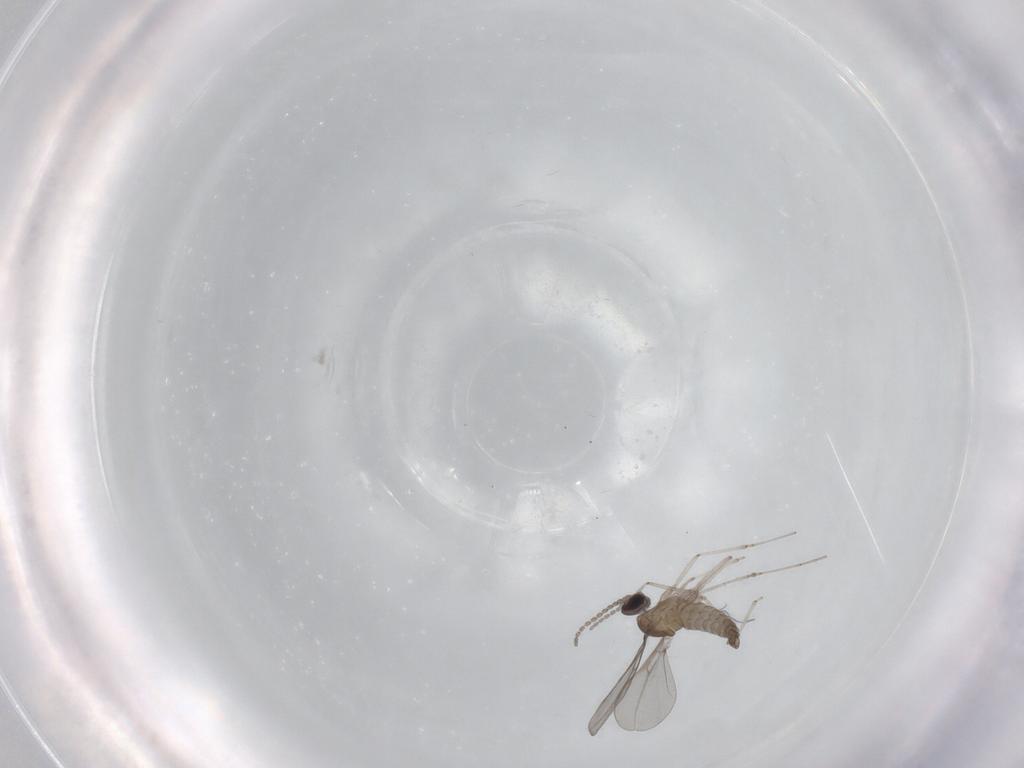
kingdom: Animalia
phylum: Arthropoda
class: Insecta
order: Diptera
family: Cecidomyiidae
